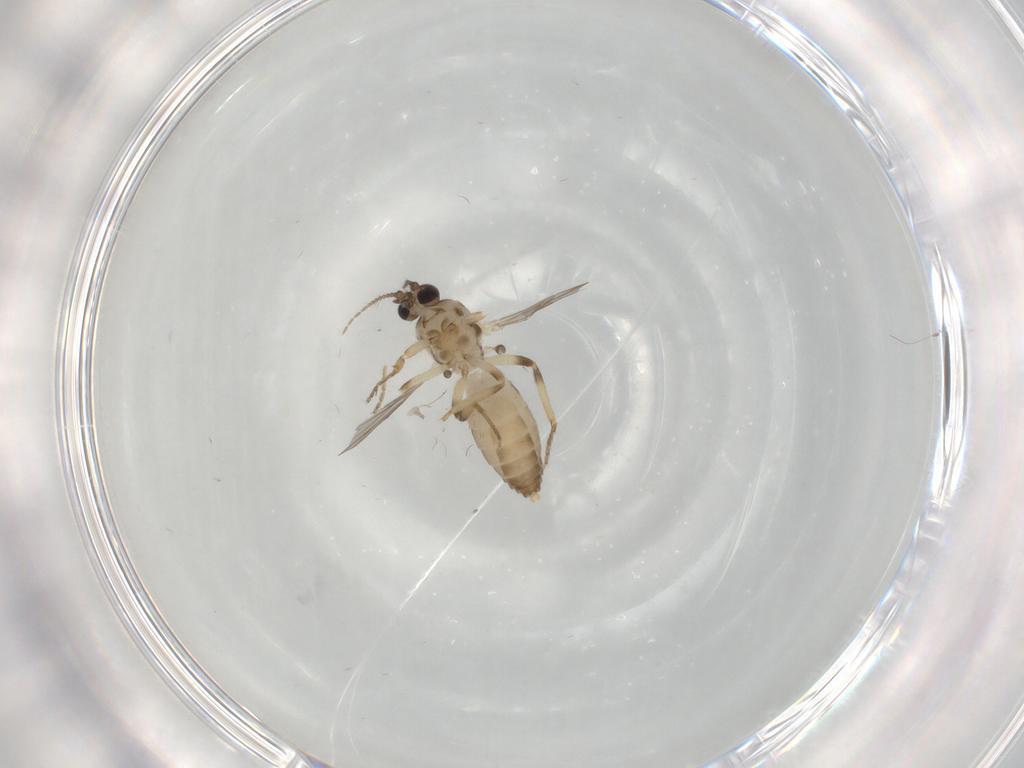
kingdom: Animalia
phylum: Arthropoda
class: Insecta
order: Diptera
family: Ceratopogonidae
